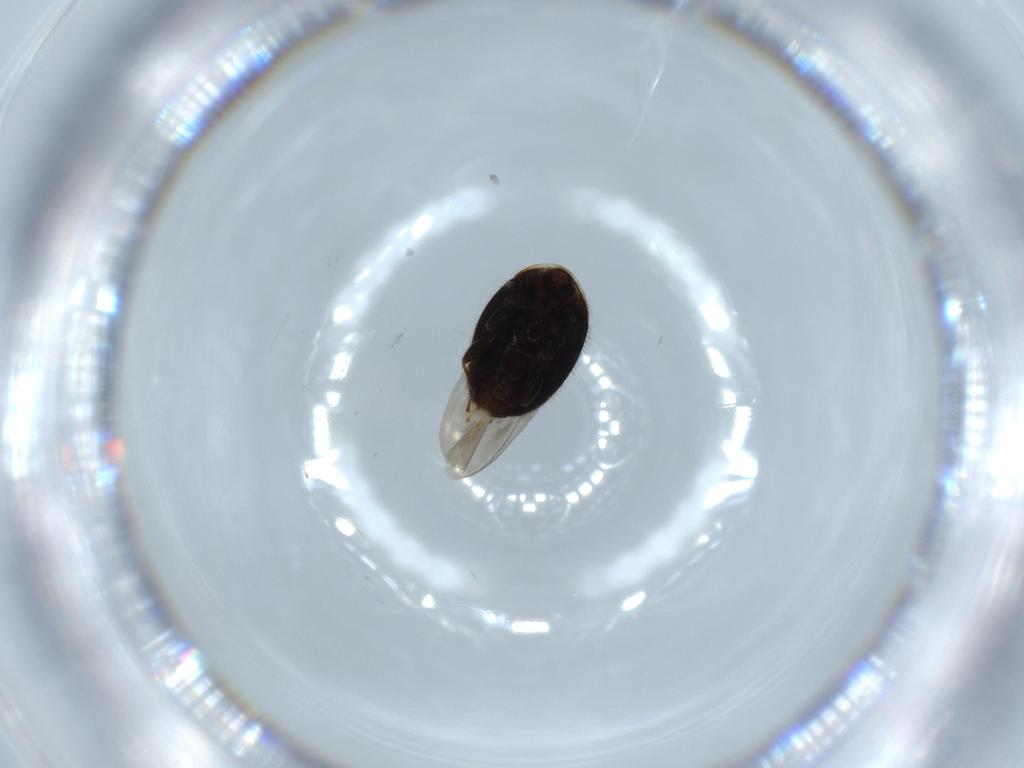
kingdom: Animalia
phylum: Arthropoda
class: Insecta
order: Coleoptera
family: Corylophidae
